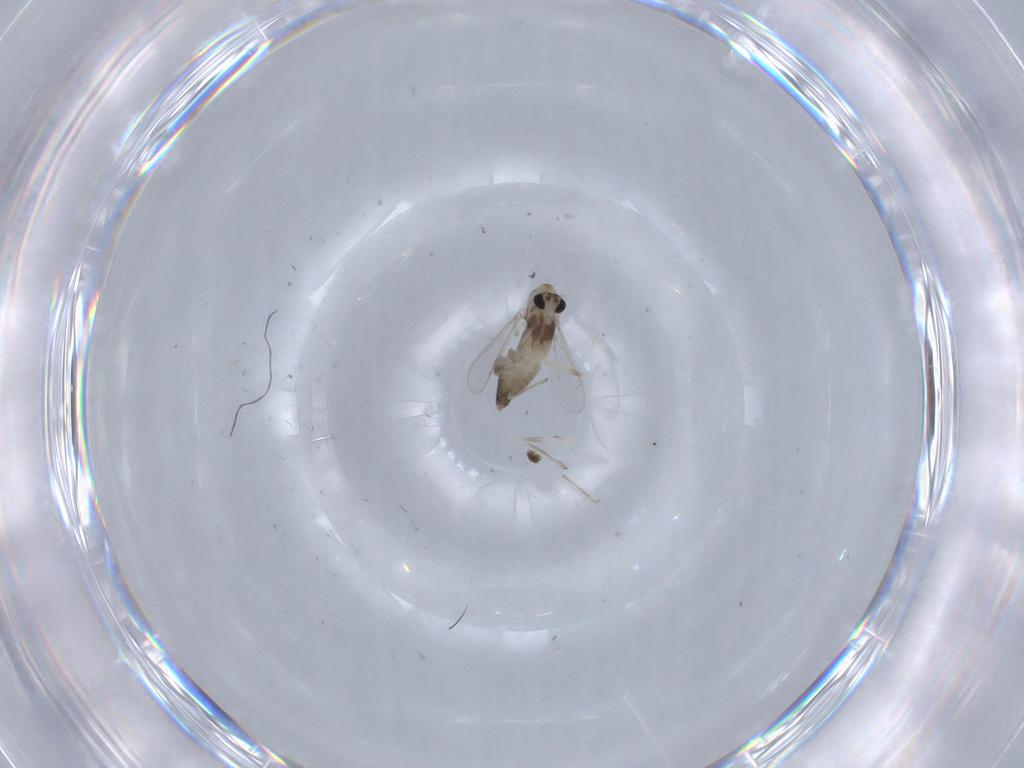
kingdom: Animalia
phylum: Arthropoda
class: Insecta
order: Diptera
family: Chironomidae
